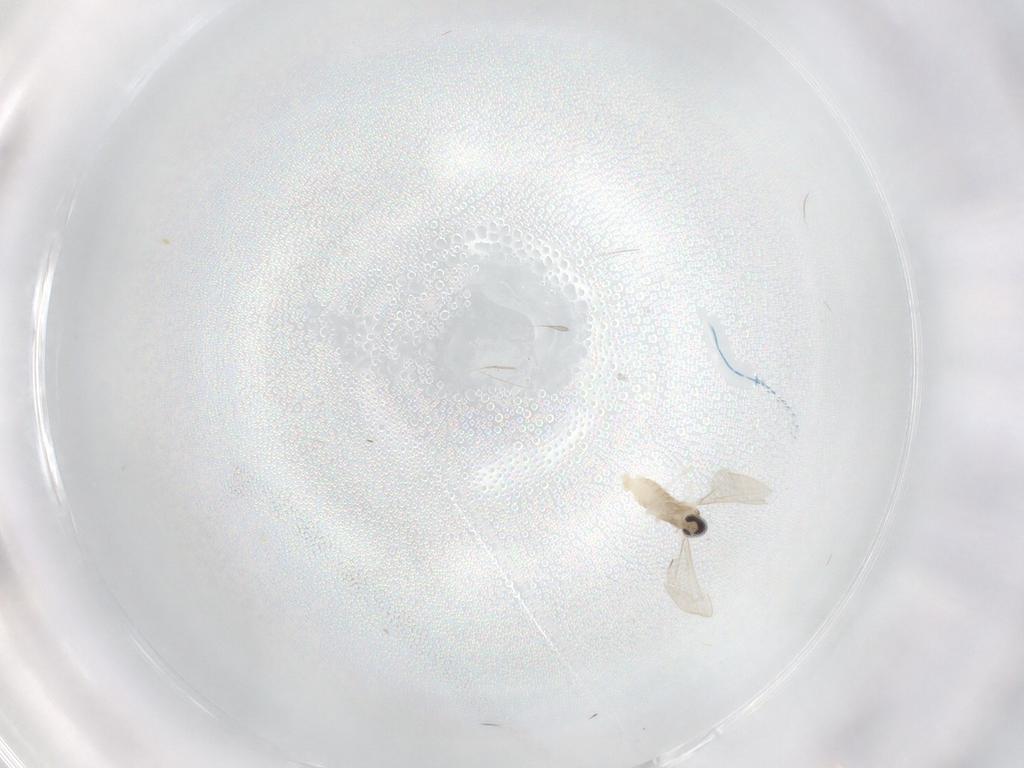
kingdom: Animalia
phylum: Arthropoda
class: Insecta
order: Diptera
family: Cecidomyiidae
